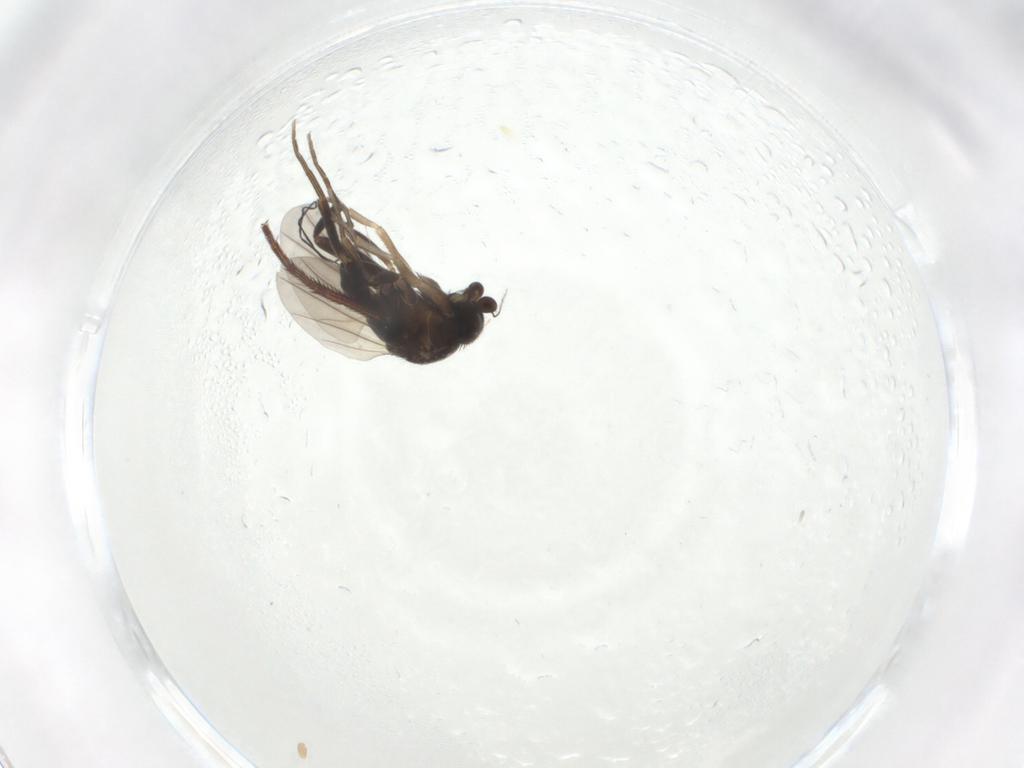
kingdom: Animalia
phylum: Arthropoda
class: Insecta
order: Diptera
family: Phoridae
